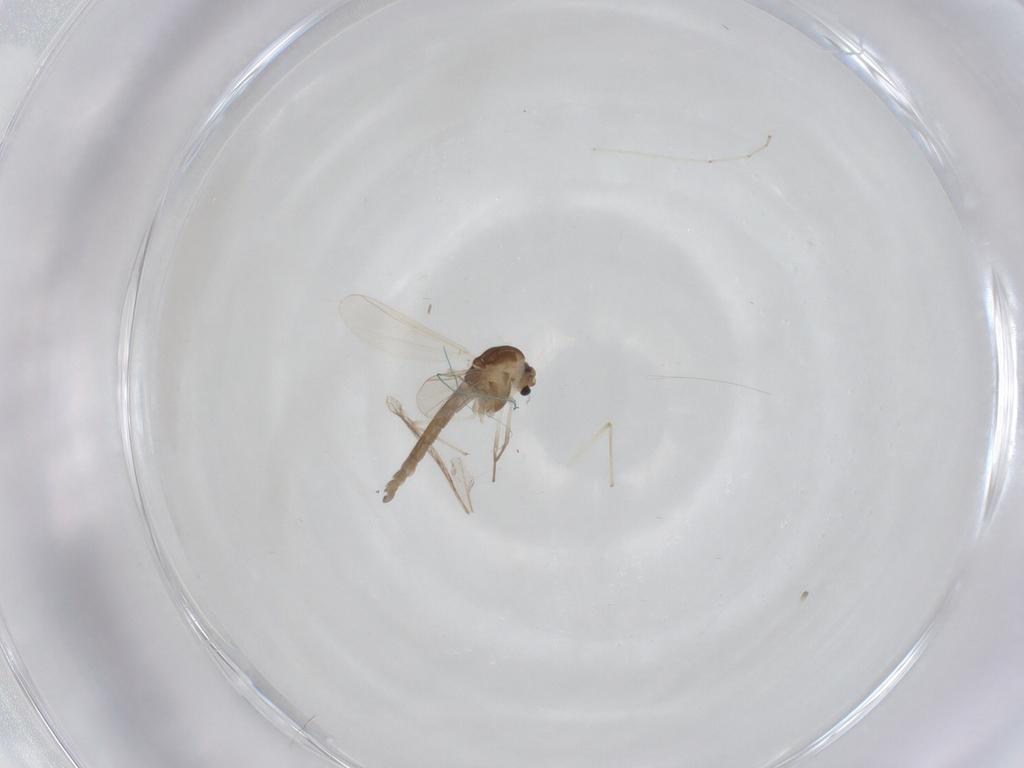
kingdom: Animalia
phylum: Arthropoda
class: Insecta
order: Diptera
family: Chironomidae
